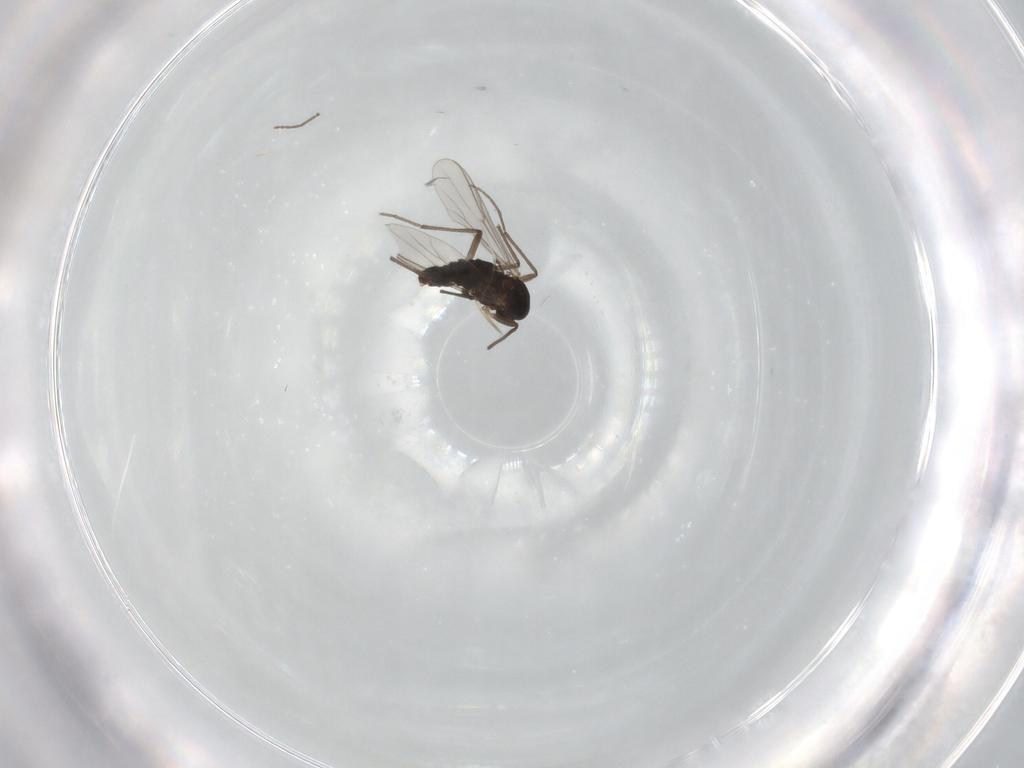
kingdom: Animalia
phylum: Arthropoda
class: Insecta
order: Diptera
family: Chironomidae
